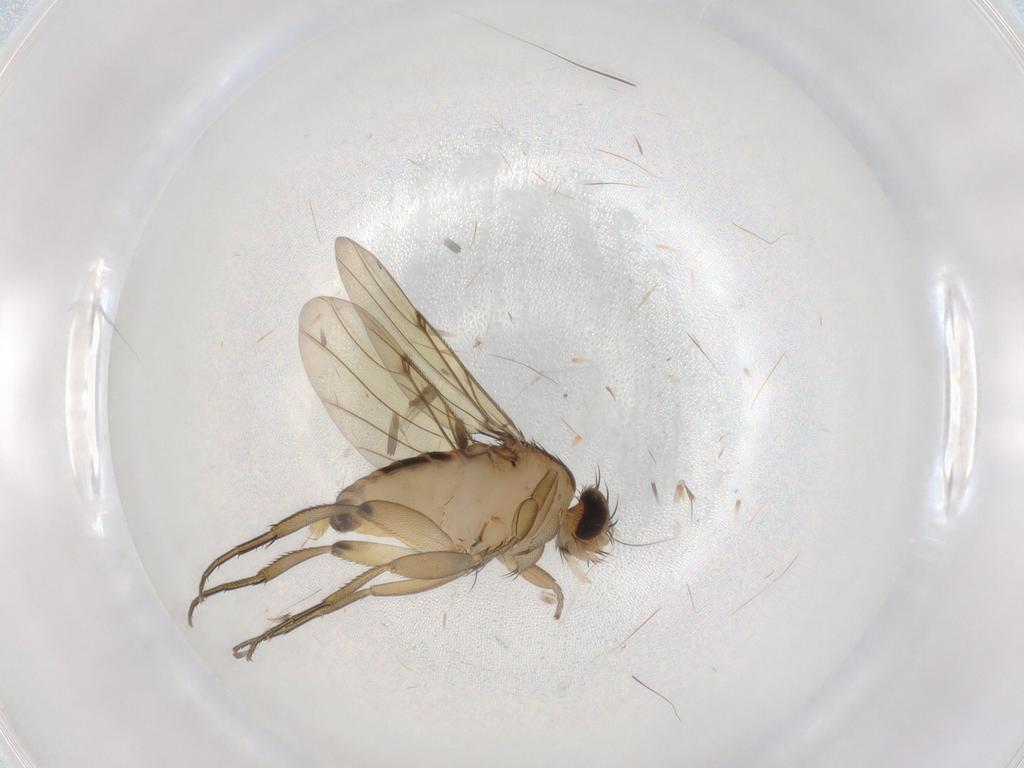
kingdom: Animalia
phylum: Arthropoda
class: Insecta
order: Diptera
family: Phoridae
